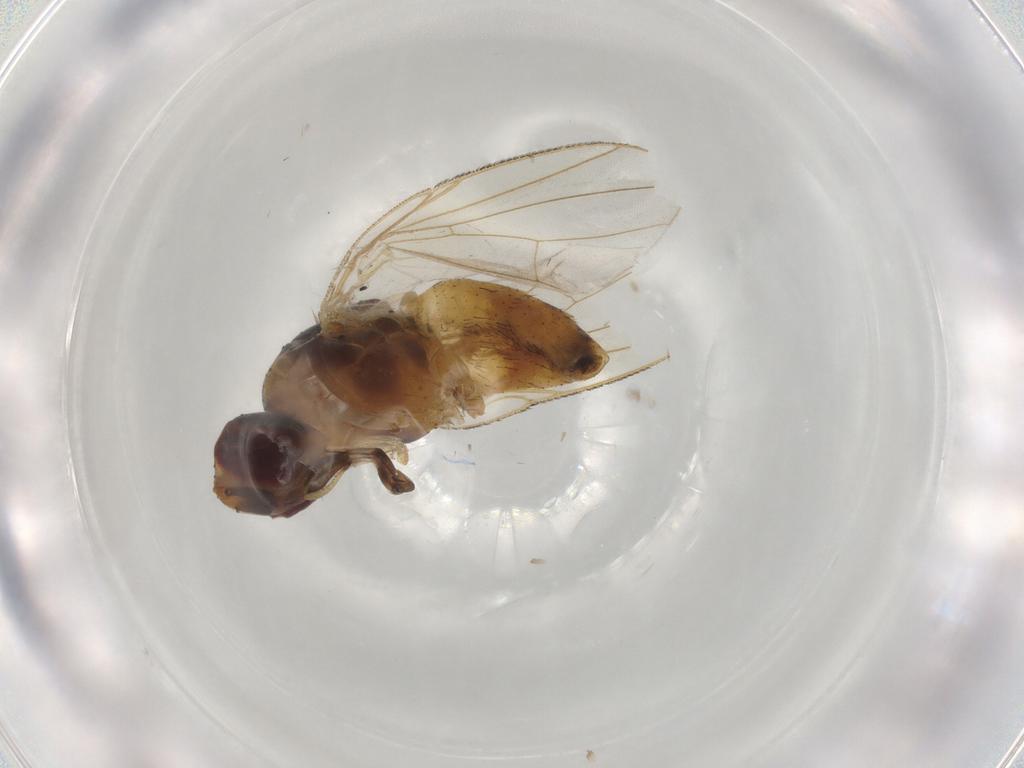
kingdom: Animalia
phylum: Arthropoda
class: Insecta
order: Diptera
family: Muscidae
